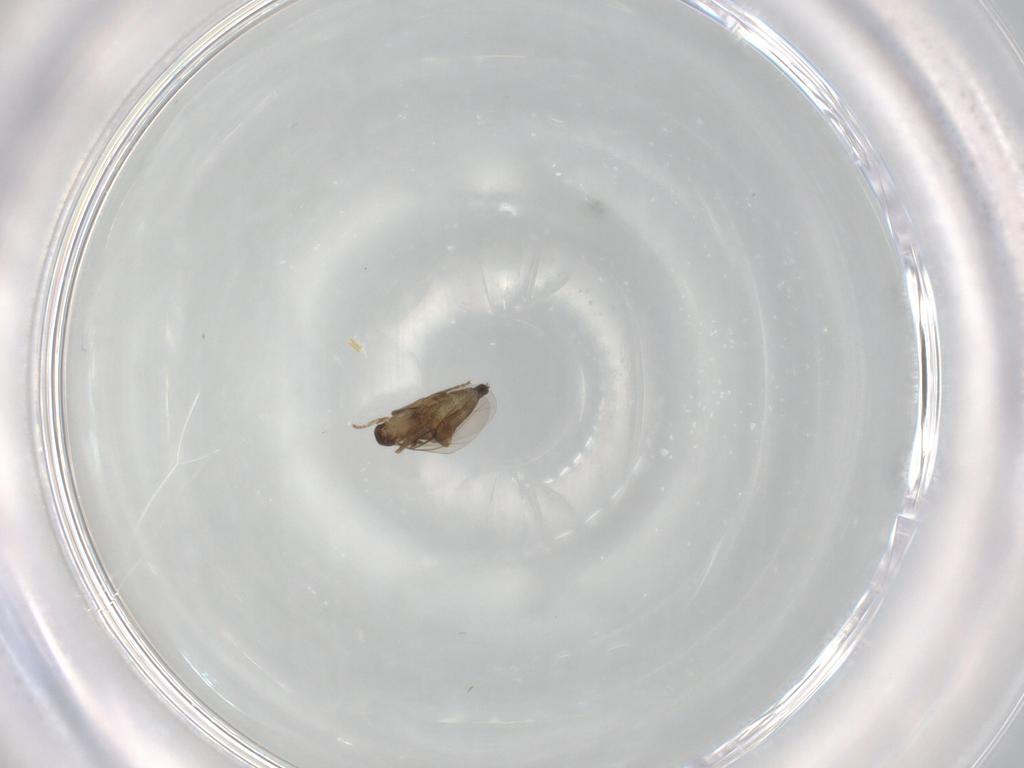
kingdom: Animalia
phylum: Arthropoda
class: Insecta
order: Diptera
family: Phoridae
